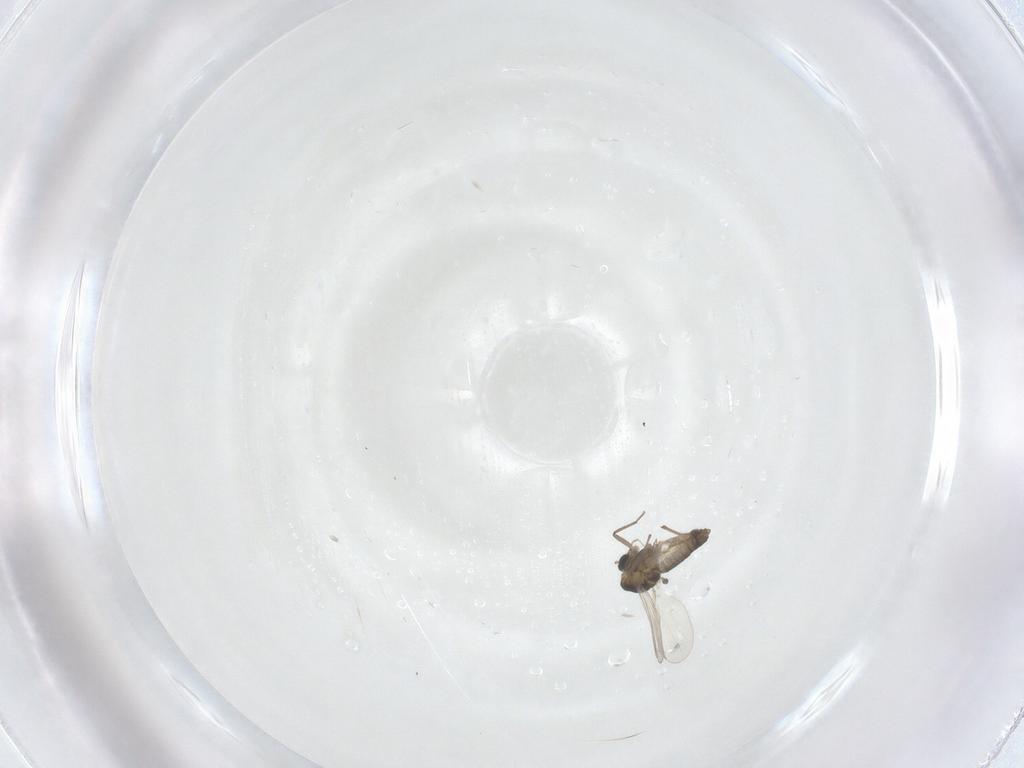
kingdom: Animalia
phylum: Arthropoda
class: Insecta
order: Diptera
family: Chironomidae
